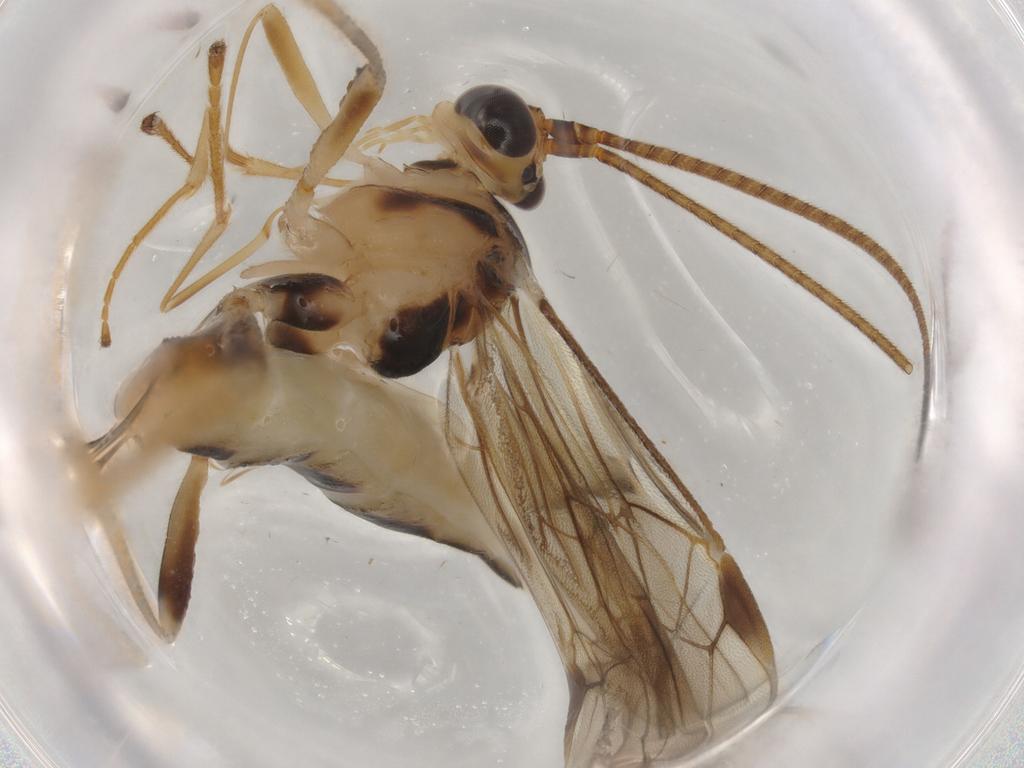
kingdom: Animalia
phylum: Arthropoda
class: Insecta
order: Hymenoptera
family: Braconidae
